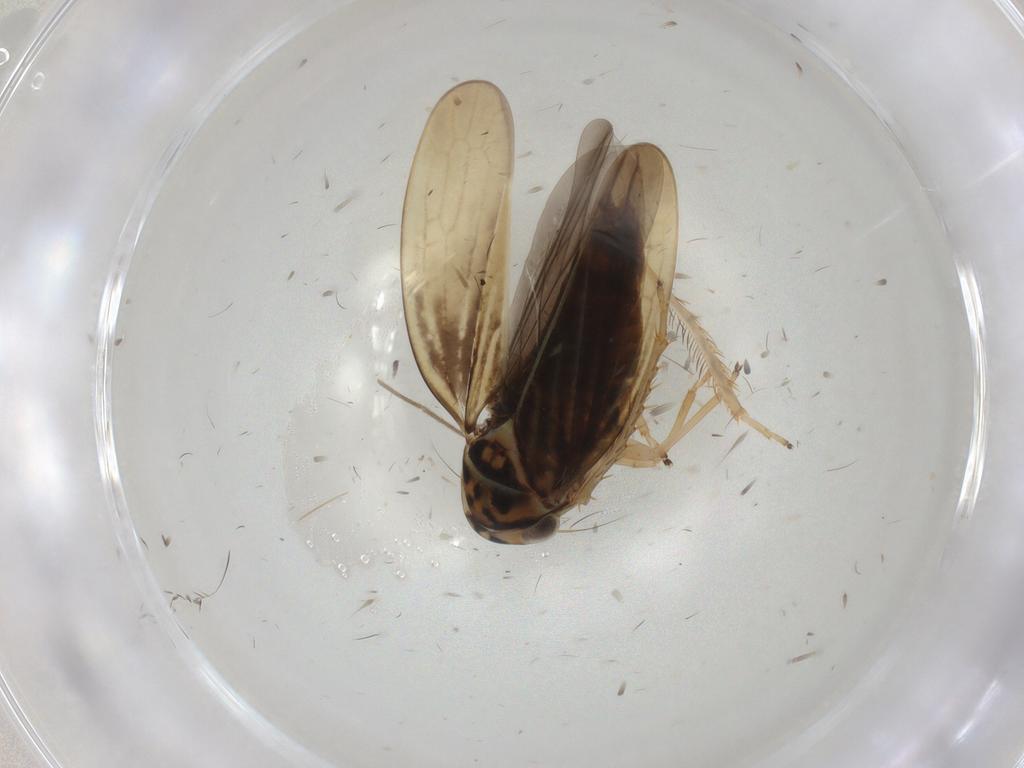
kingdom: Animalia
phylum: Arthropoda
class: Insecta
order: Hemiptera
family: Cicadellidae
